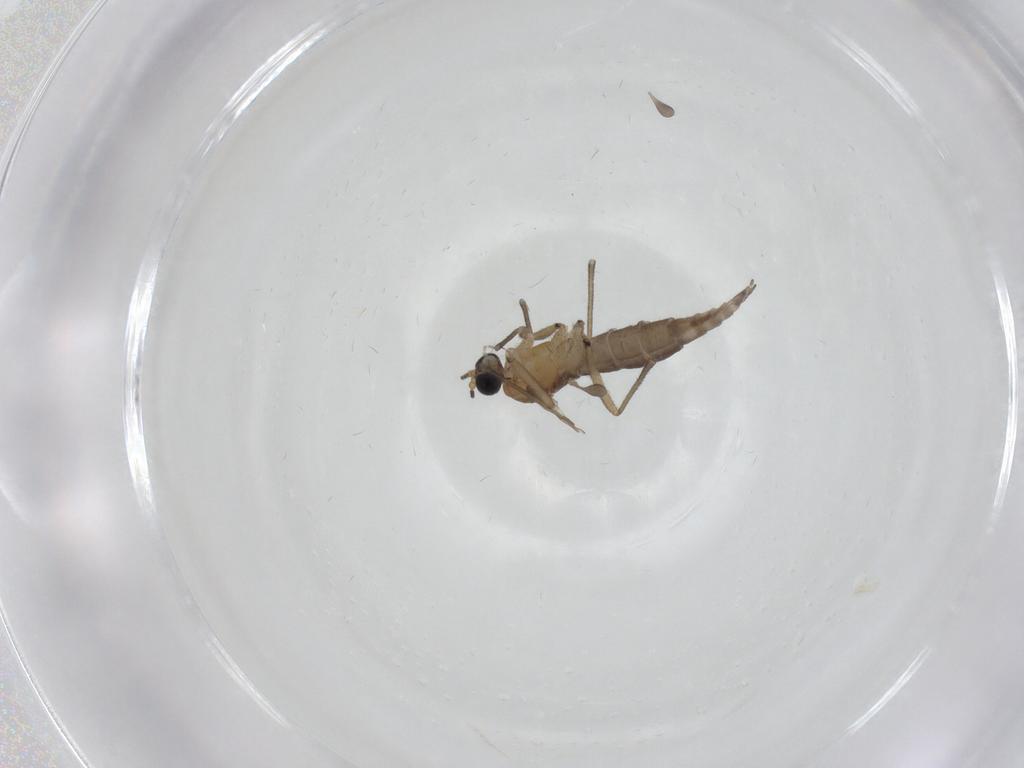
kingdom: Animalia
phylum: Arthropoda
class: Insecta
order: Diptera
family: Sciaridae
